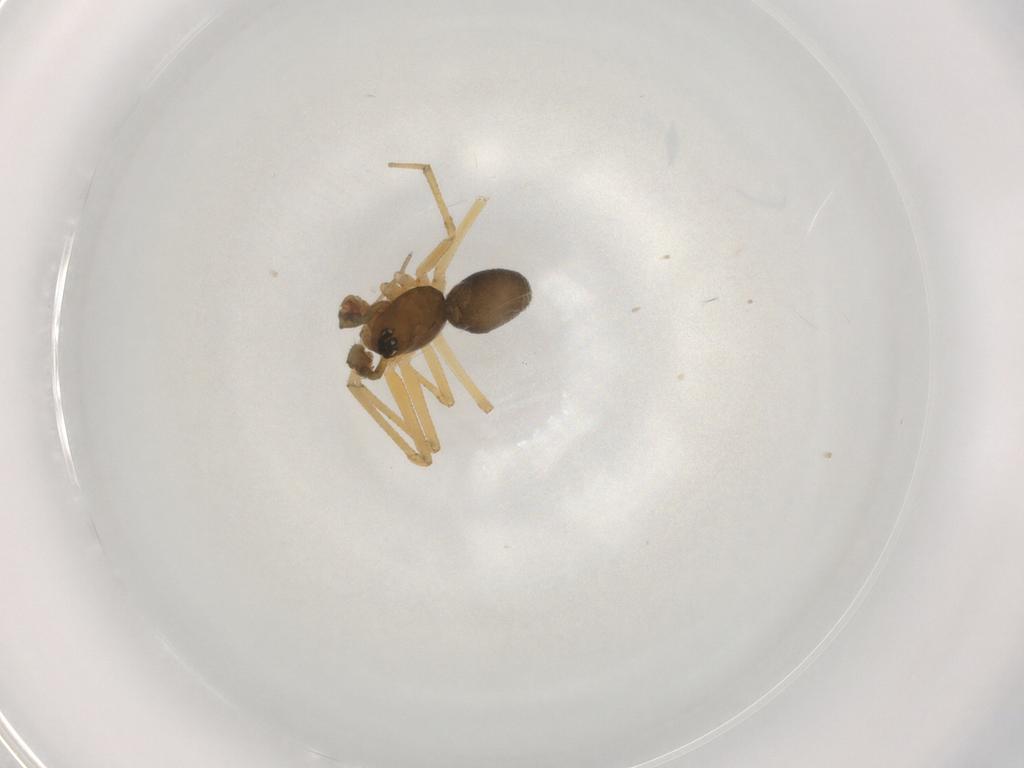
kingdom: Animalia
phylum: Arthropoda
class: Arachnida
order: Araneae
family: Linyphiidae
